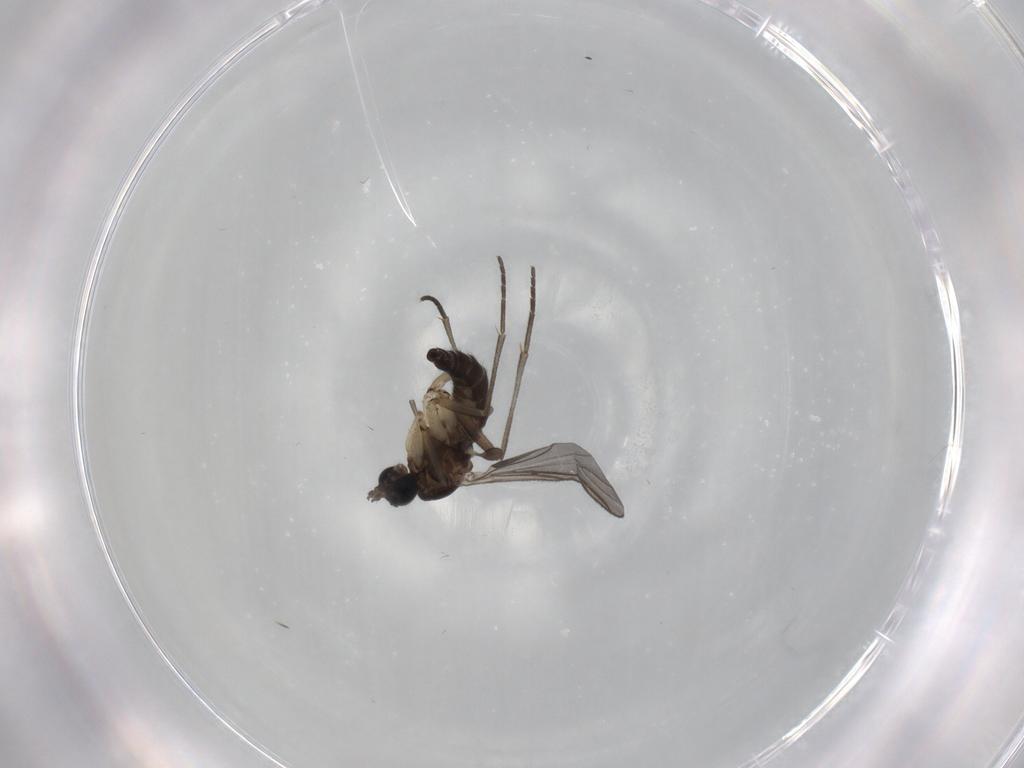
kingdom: Animalia
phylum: Arthropoda
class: Insecta
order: Diptera
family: Sciaridae
